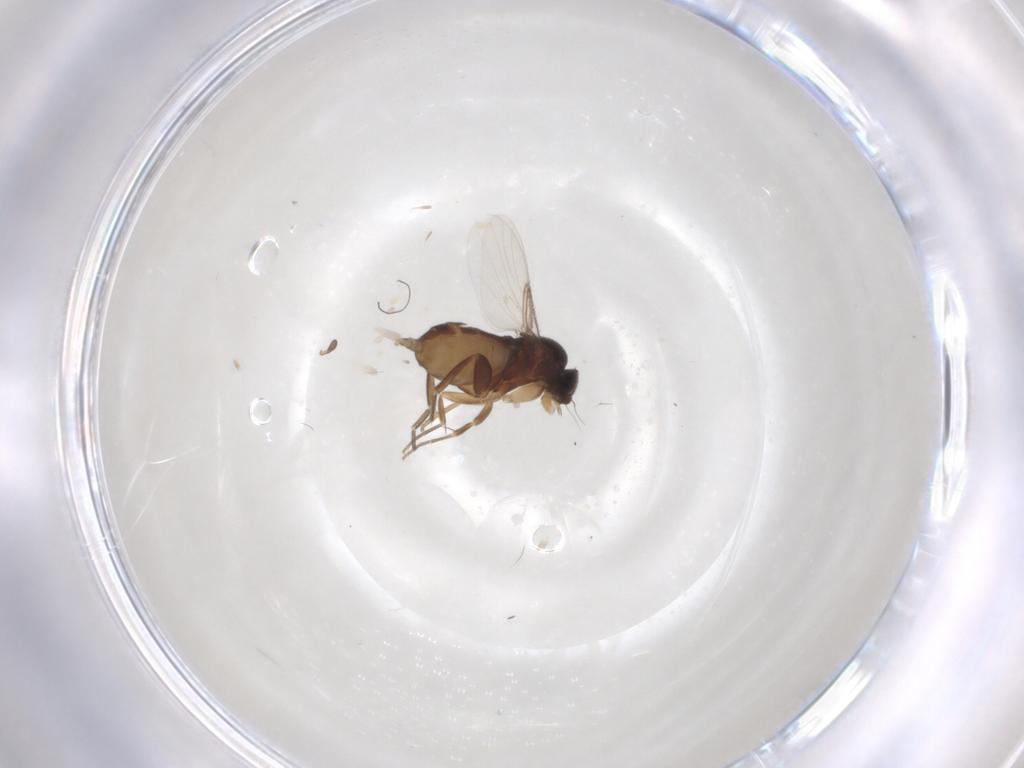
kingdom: Animalia
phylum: Arthropoda
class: Insecta
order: Diptera
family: Phoridae
